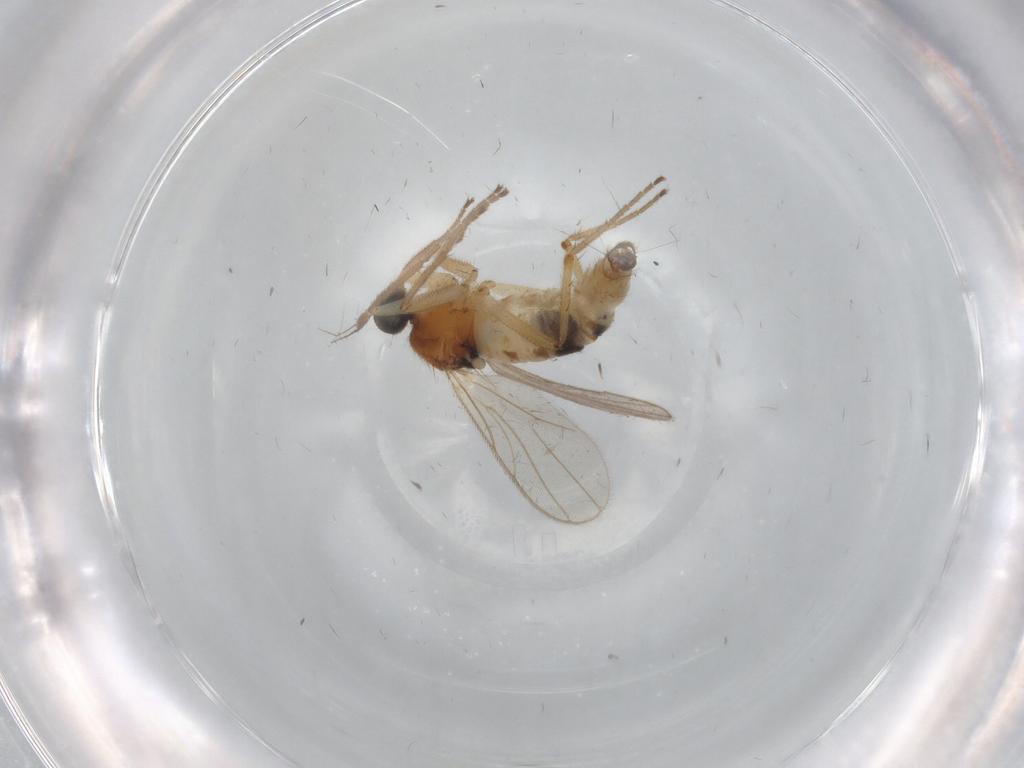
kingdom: Animalia
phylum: Arthropoda
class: Insecta
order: Diptera
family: Hybotidae
